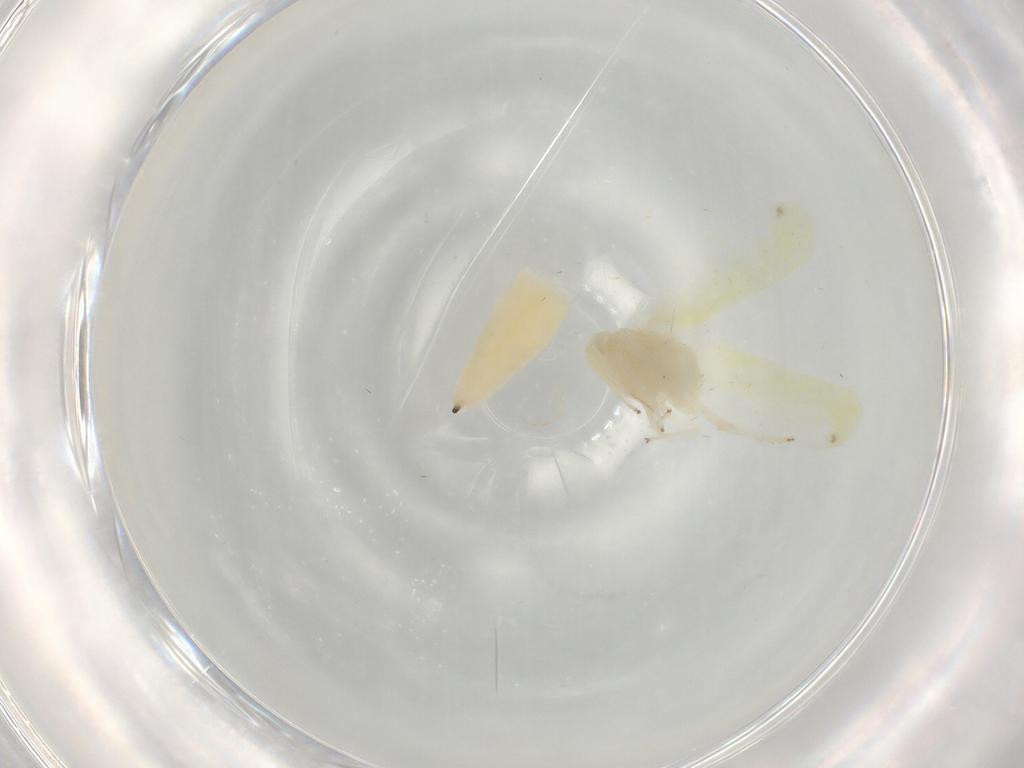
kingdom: Animalia
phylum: Arthropoda
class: Insecta
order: Hemiptera
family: Cicadellidae
